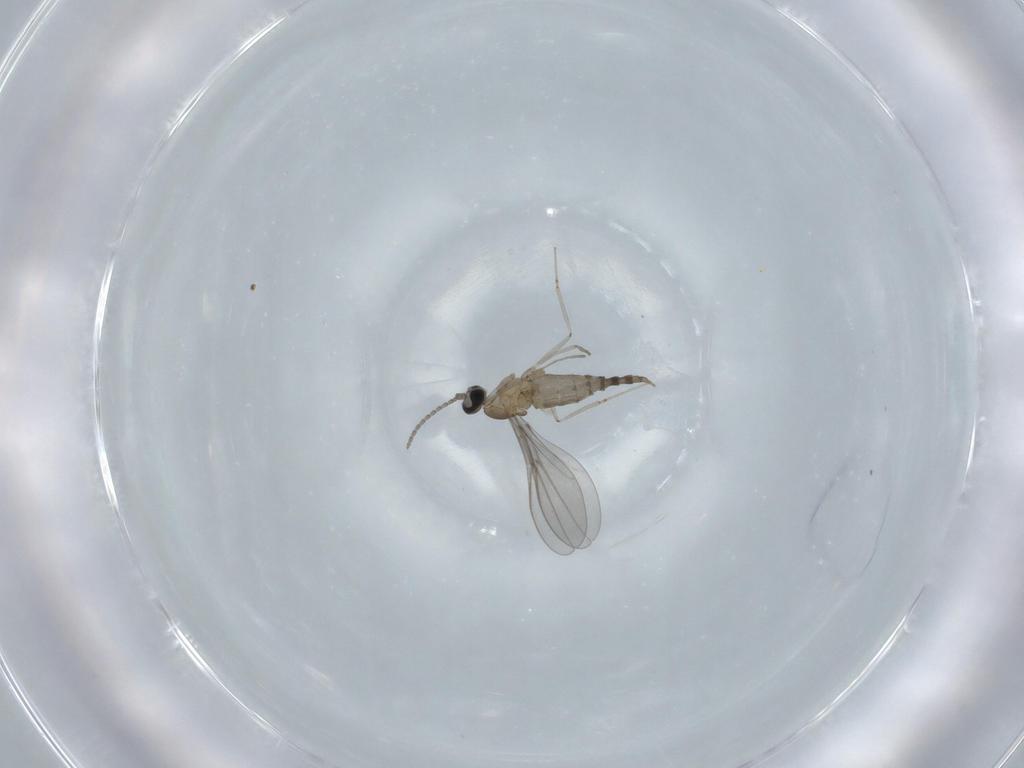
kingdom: Animalia
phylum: Arthropoda
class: Insecta
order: Diptera
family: Cecidomyiidae
